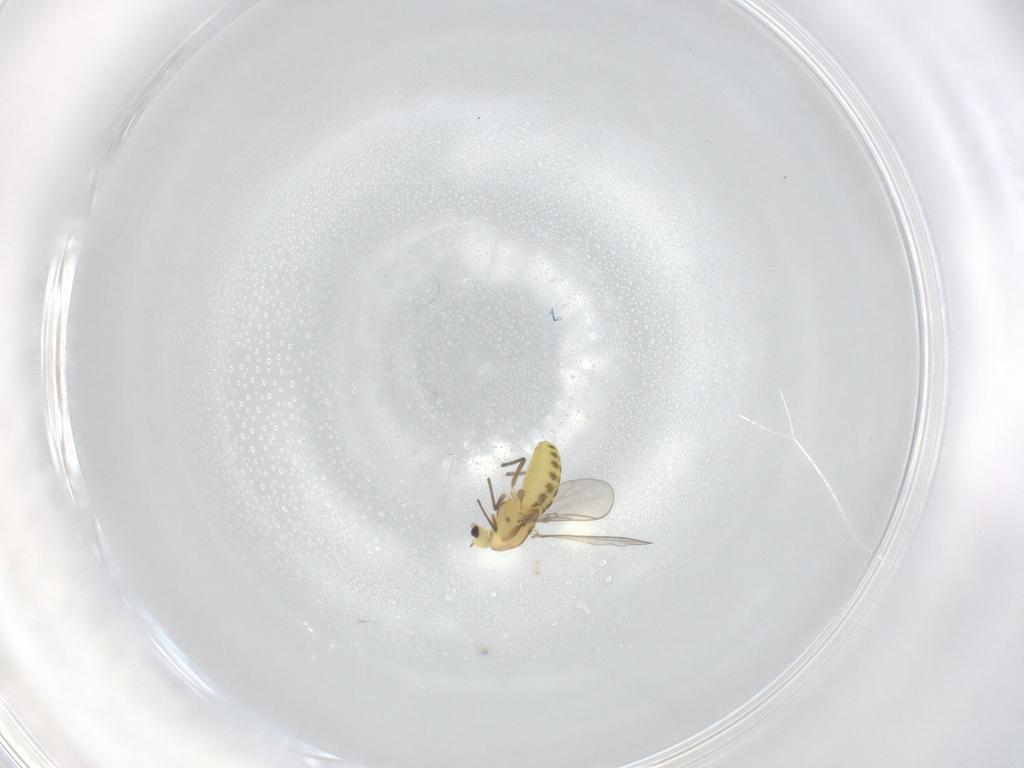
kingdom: Animalia
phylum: Arthropoda
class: Insecta
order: Diptera
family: Chironomidae
